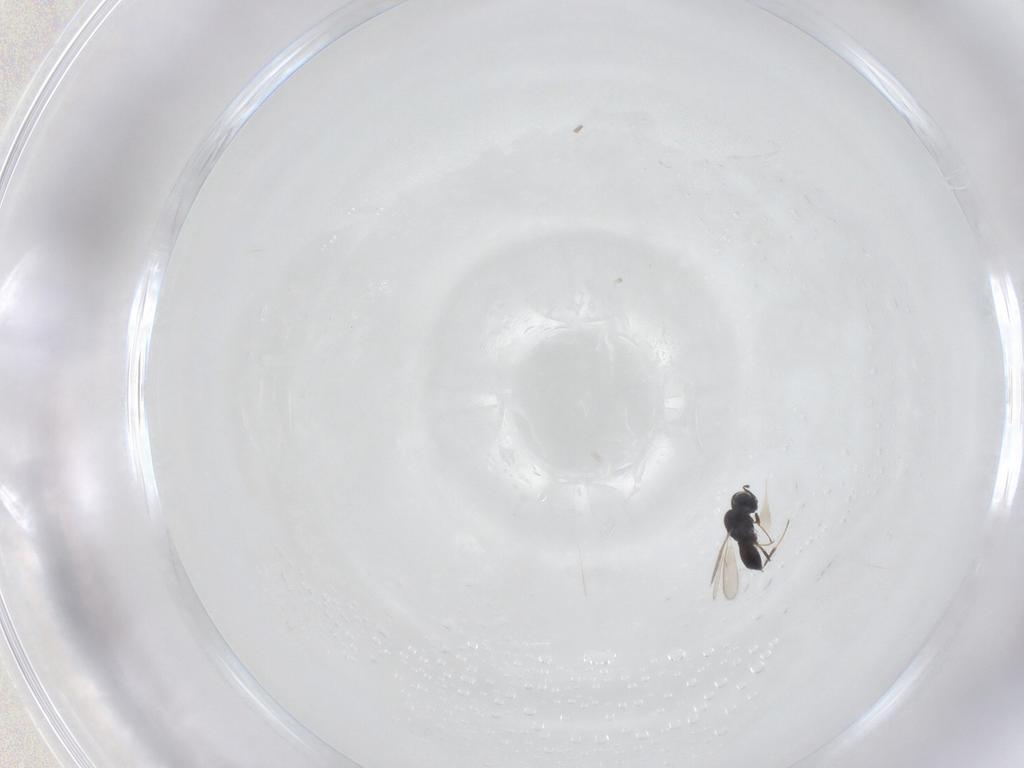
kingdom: Animalia
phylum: Arthropoda
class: Insecta
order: Hymenoptera
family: Scelionidae
